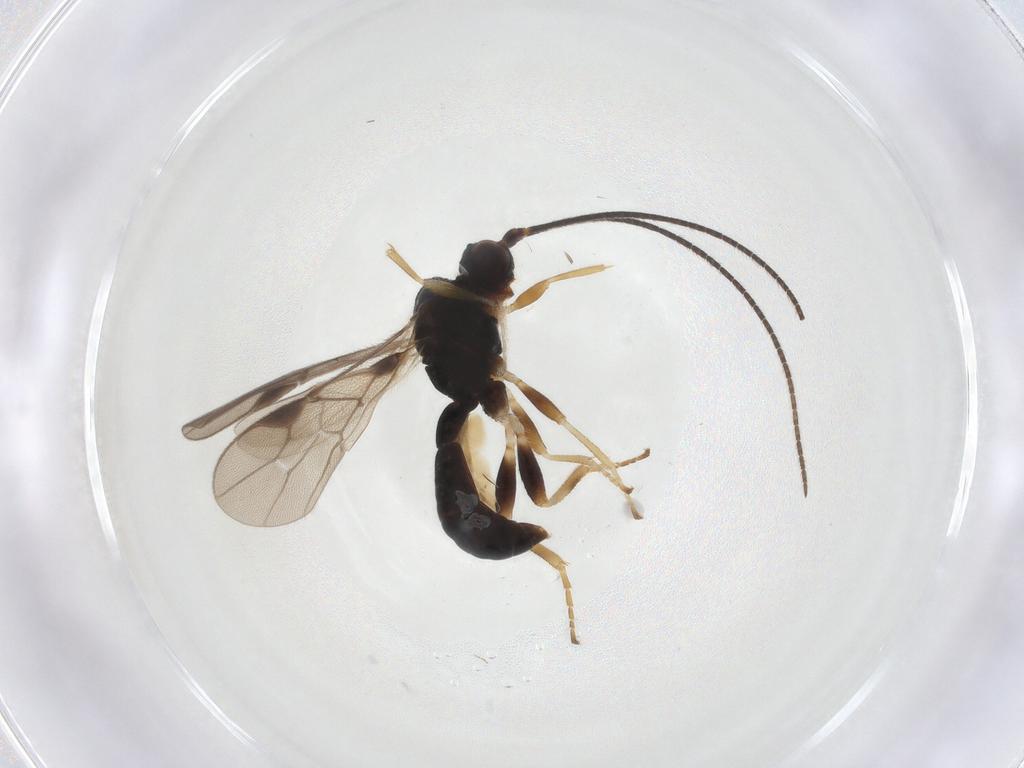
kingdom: Animalia
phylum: Arthropoda
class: Insecta
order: Hymenoptera
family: Braconidae
